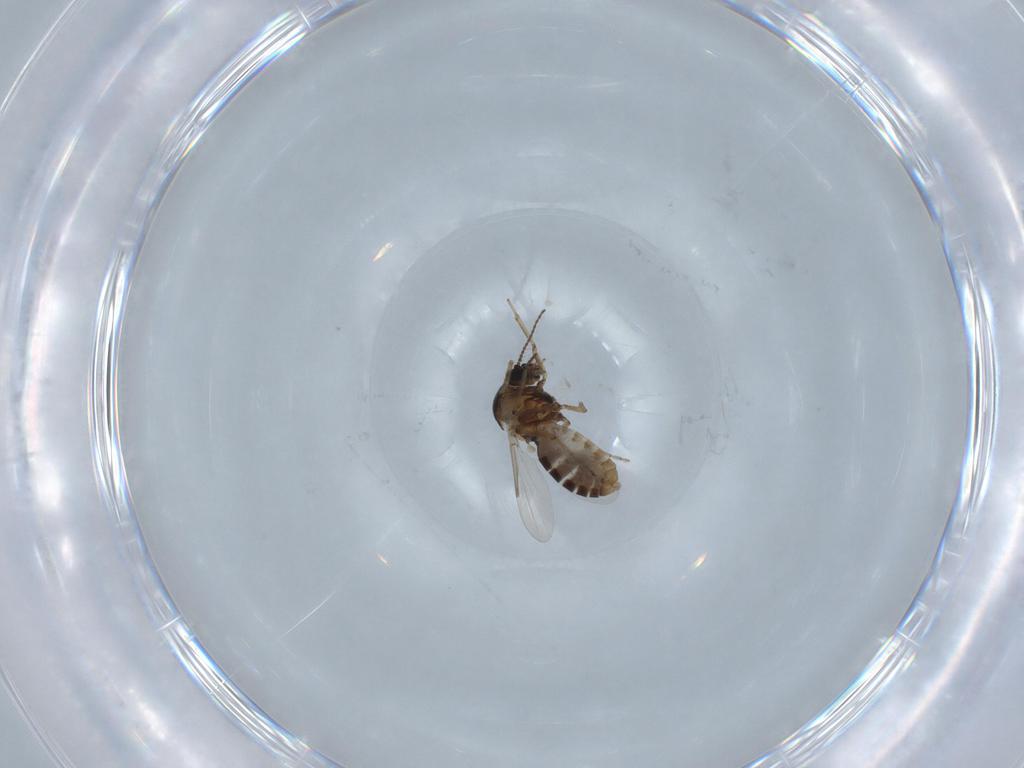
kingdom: Animalia
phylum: Arthropoda
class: Insecta
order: Diptera
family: Ceratopogonidae
